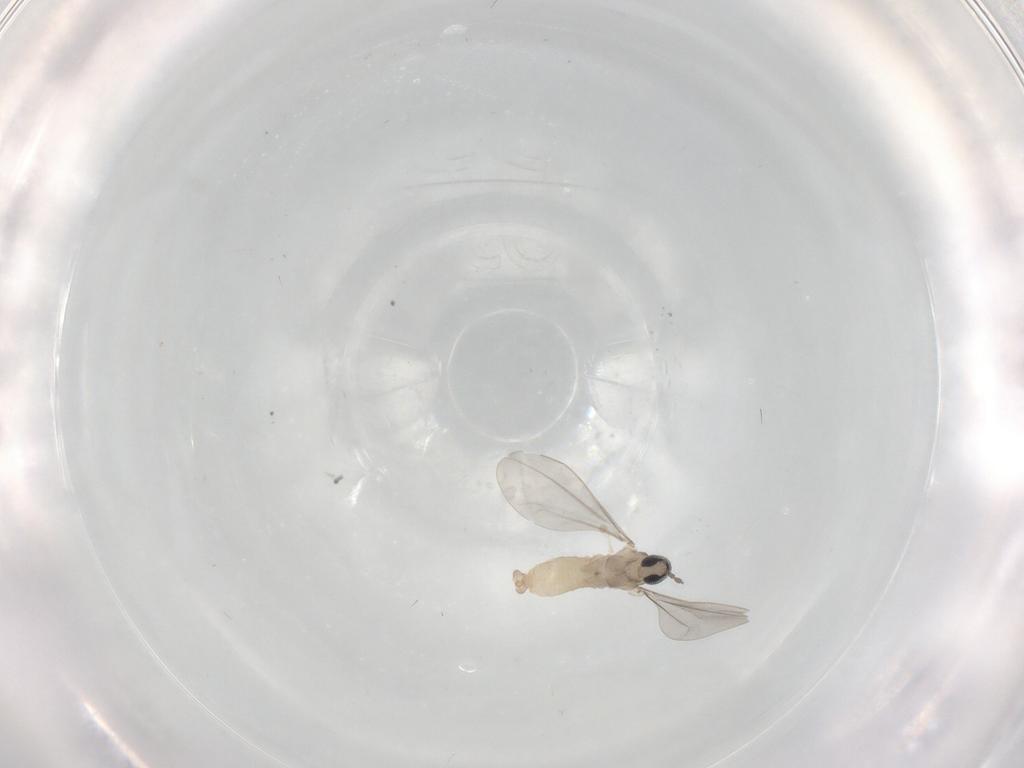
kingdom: Animalia
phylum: Arthropoda
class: Insecta
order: Diptera
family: Cecidomyiidae
